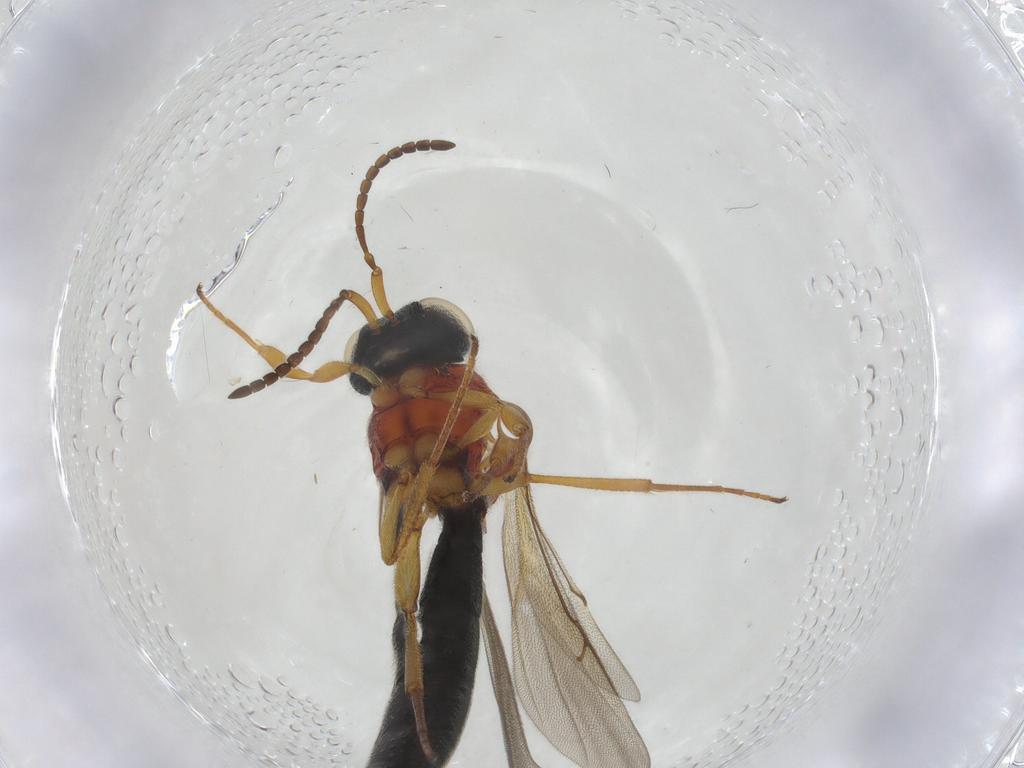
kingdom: Animalia
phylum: Arthropoda
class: Insecta
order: Hymenoptera
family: Scelionidae
